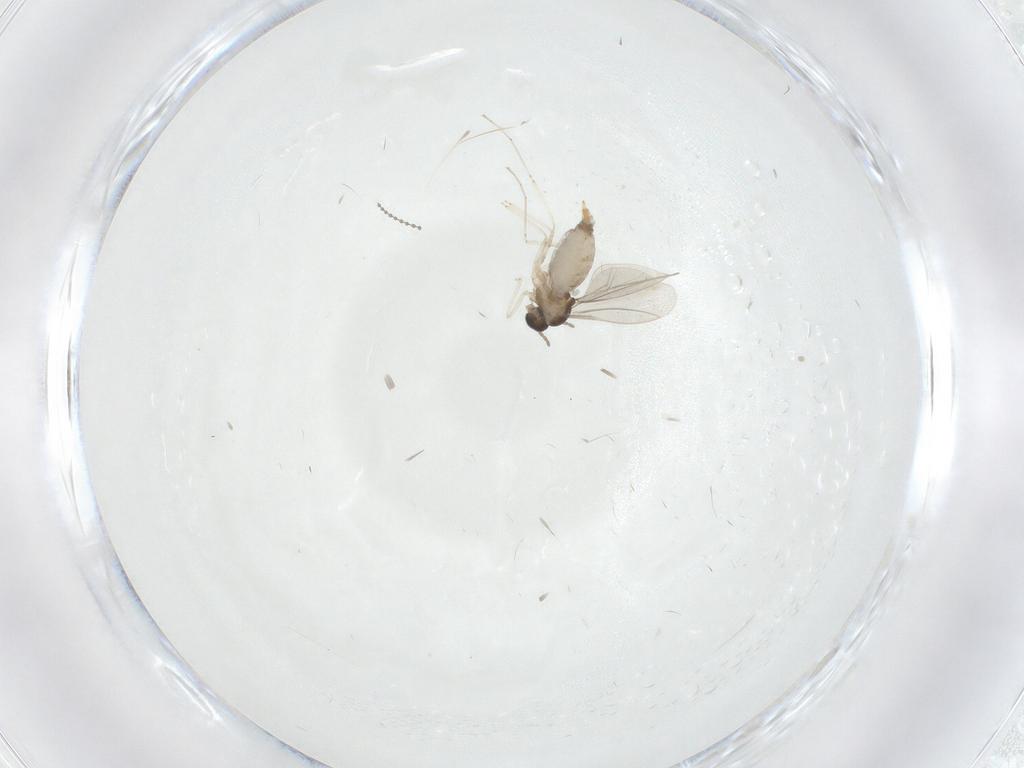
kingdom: Animalia
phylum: Arthropoda
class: Insecta
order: Diptera
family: Cecidomyiidae
